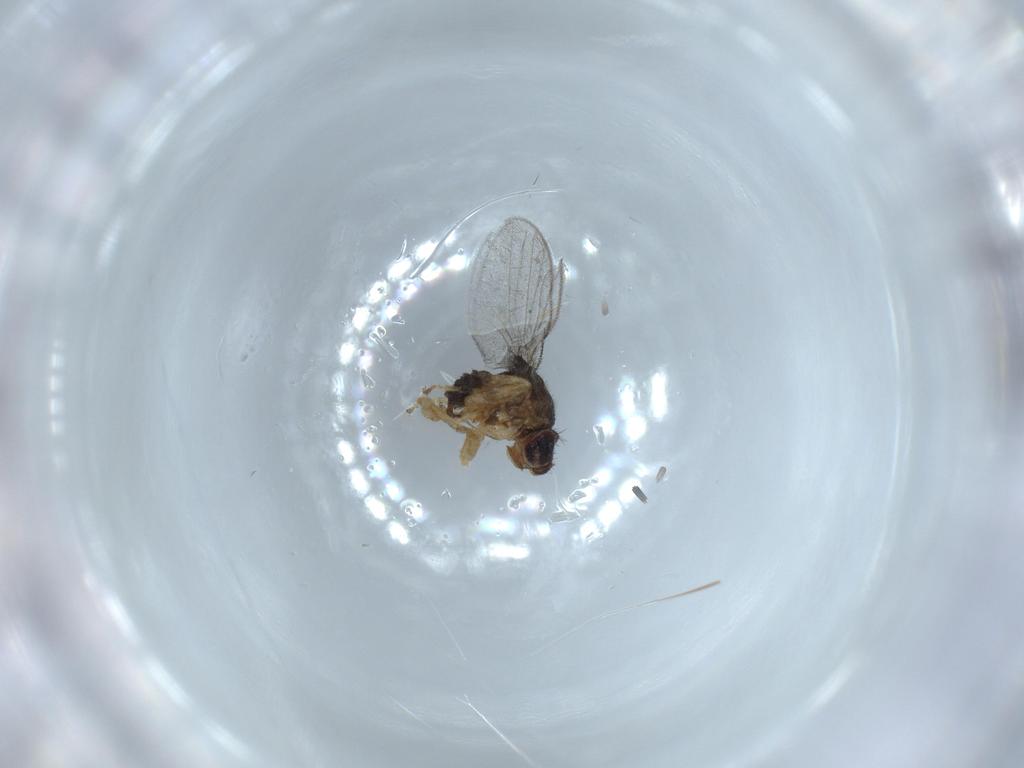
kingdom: Animalia
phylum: Arthropoda
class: Insecta
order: Diptera
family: Chloropidae
